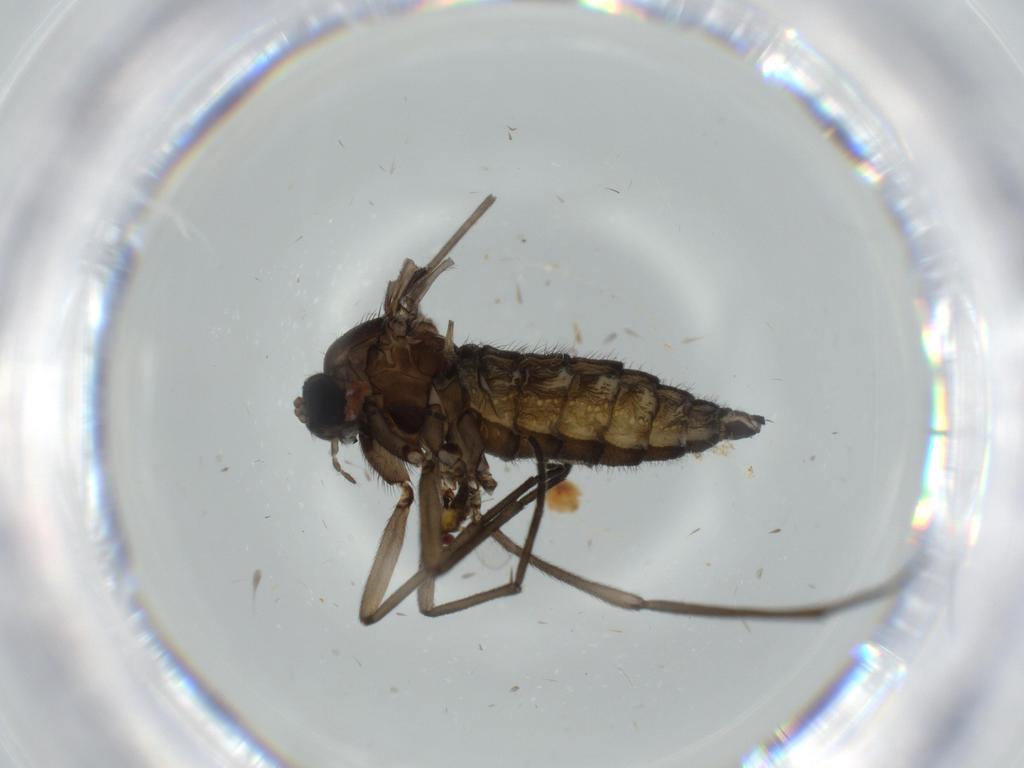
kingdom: Animalia
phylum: Arthropoda
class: Insecta
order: Diptera
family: Sciaridae
